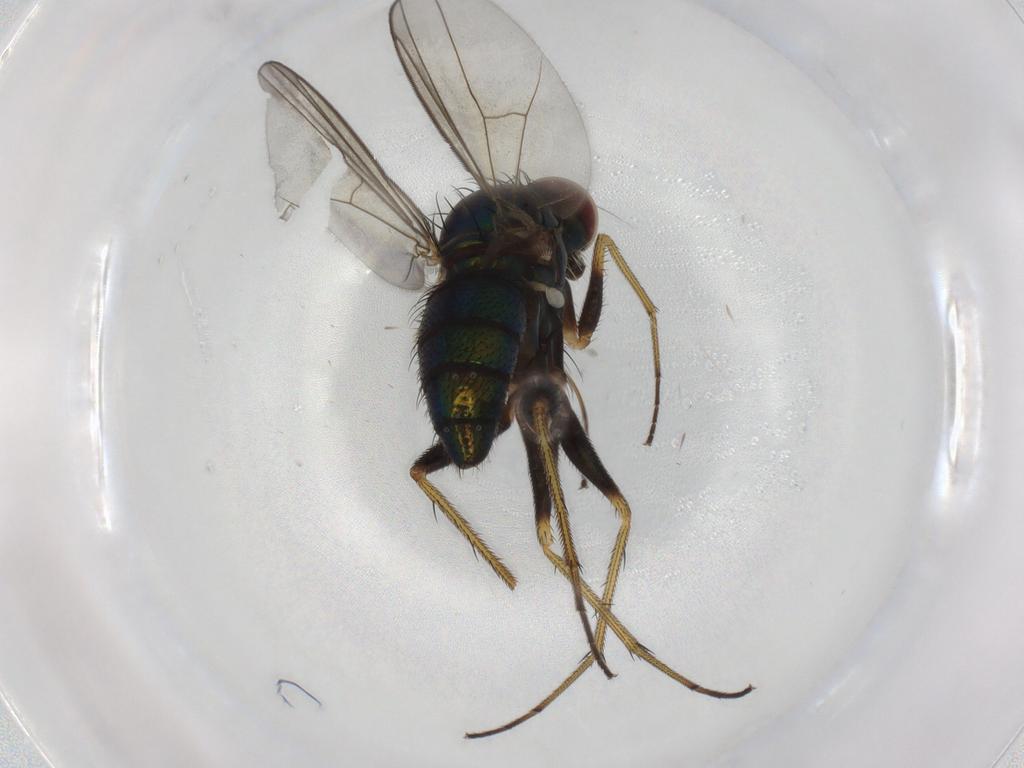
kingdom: Animalia
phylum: Arthropoda
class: Insecta
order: Diptera
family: Dolichopodidae
